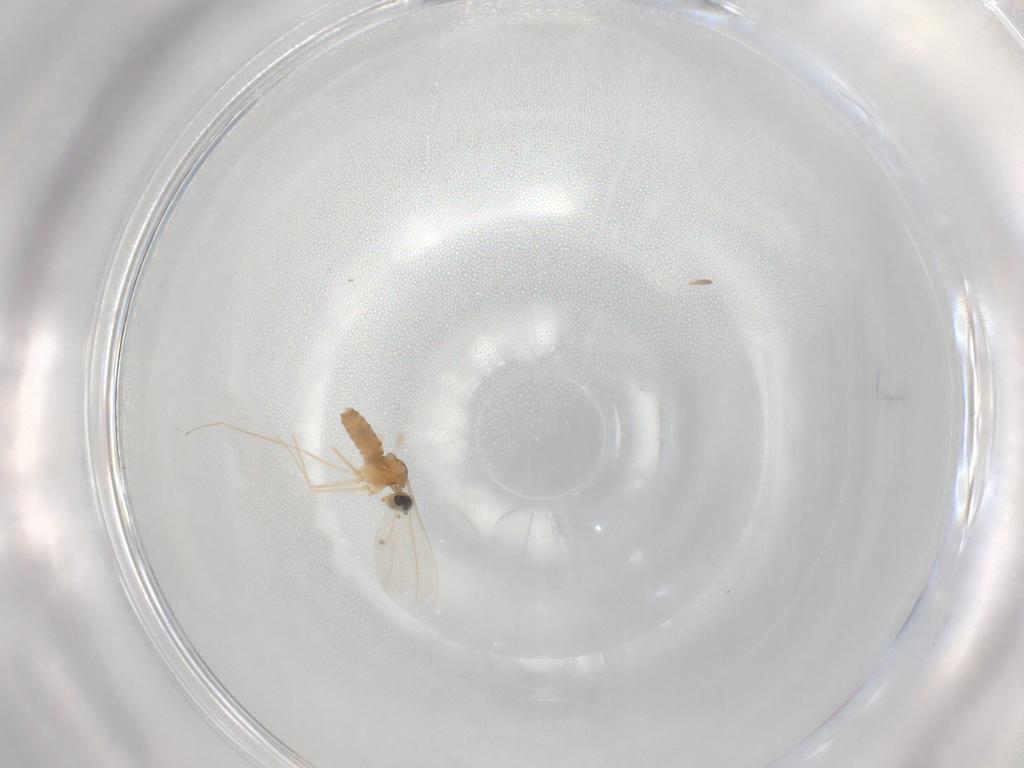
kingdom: Animalia
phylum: Arthropoda
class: Insecta
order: Diptera
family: Cecidomyiidae
